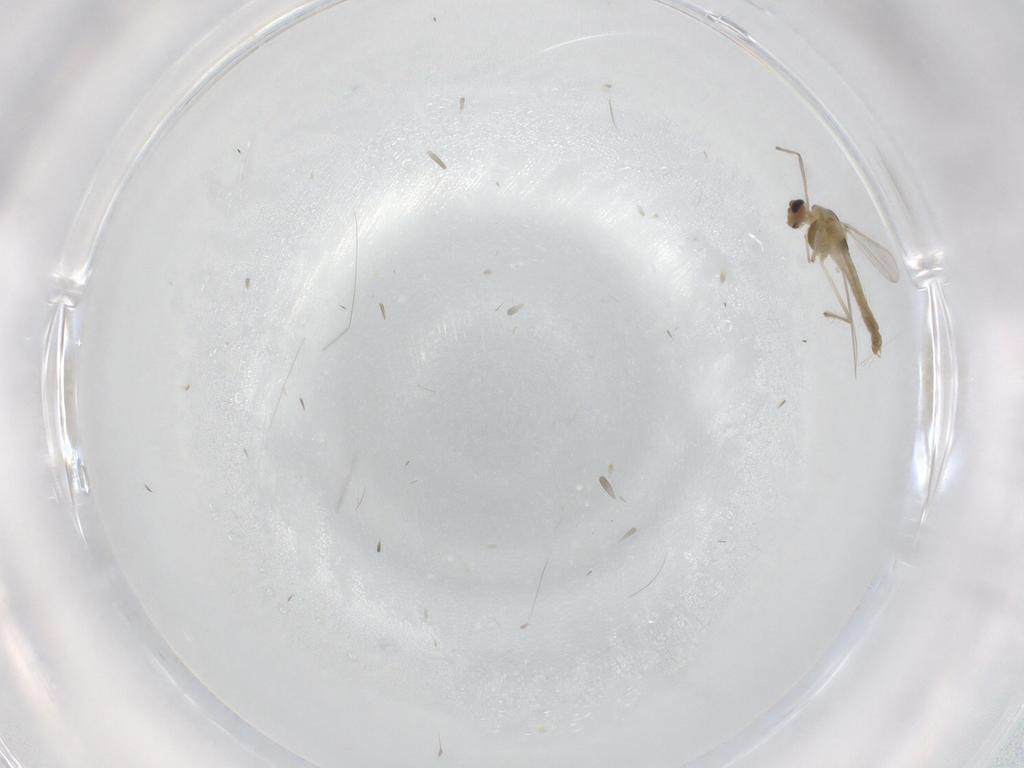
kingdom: Animalia
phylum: Arthropoda
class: Insecta
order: Diptera
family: Chironomidae
